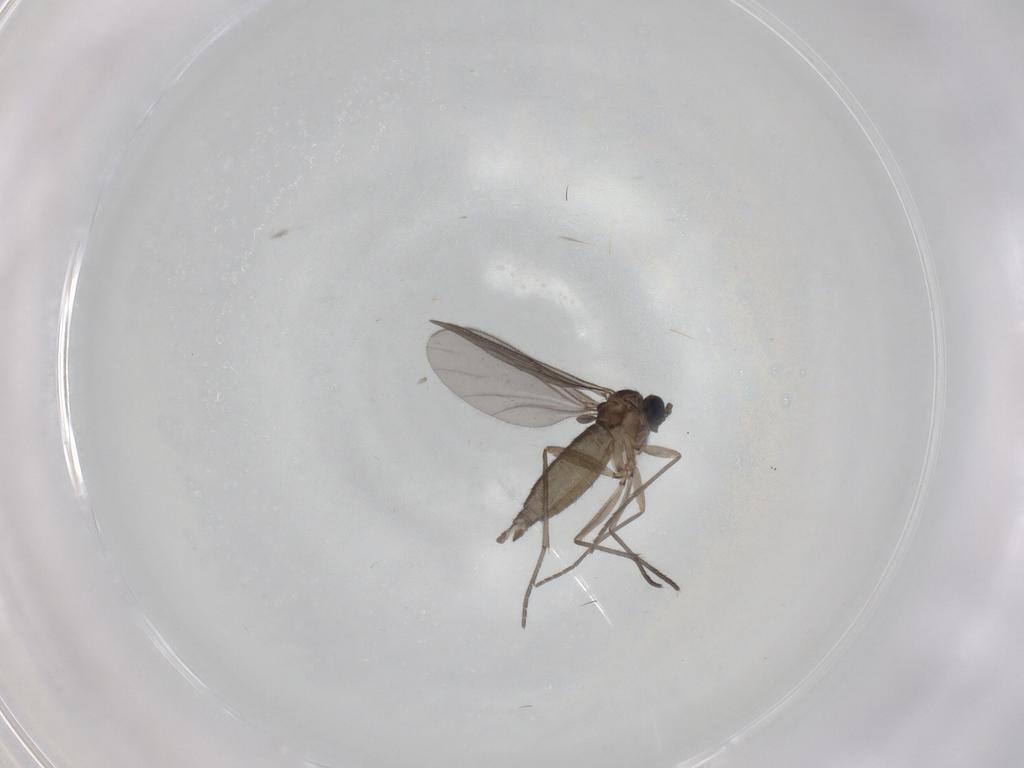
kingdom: Animalia
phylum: Arthropoda
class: Insecta
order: Diptera
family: Sciaridae
